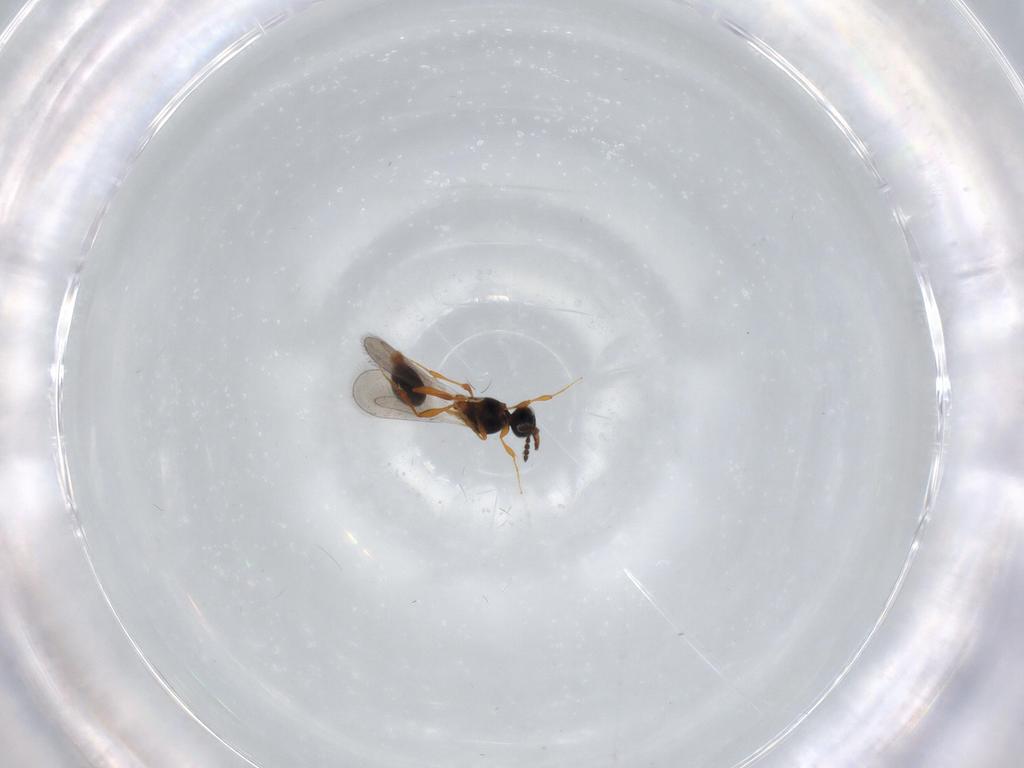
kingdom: Animalia
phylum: Arthropoda
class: Insecta
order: Hymenoptera
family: Platygastridae
